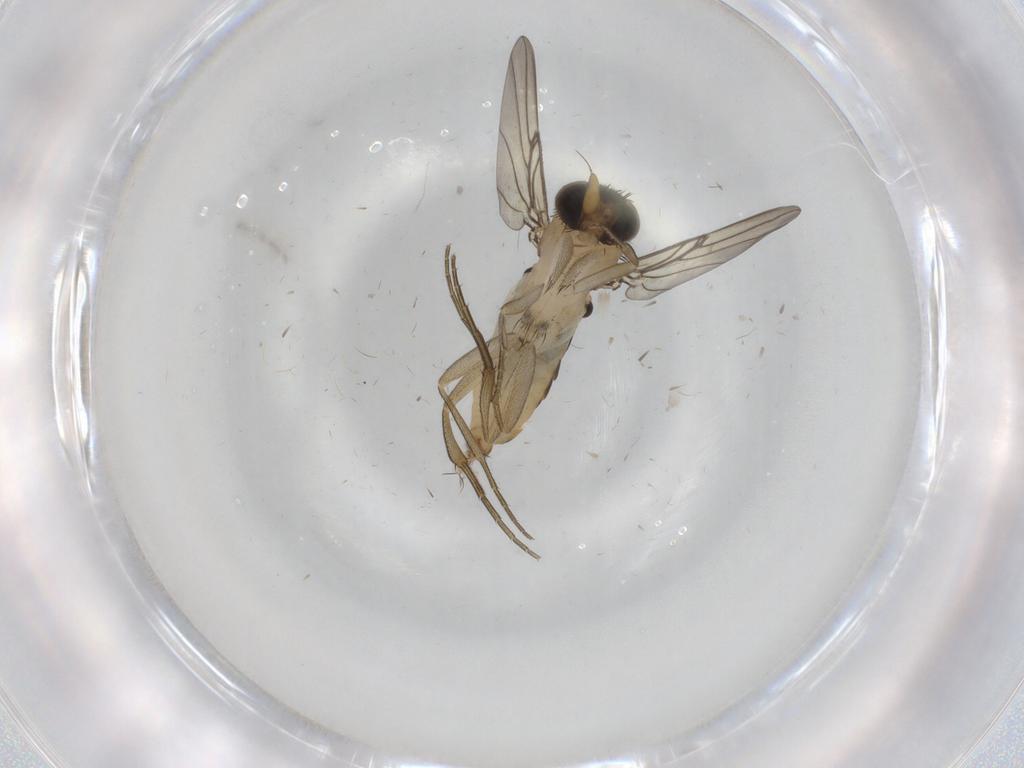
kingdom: Animalia
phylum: Arthropoda
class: Insecta
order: Diptera
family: Phoridae
